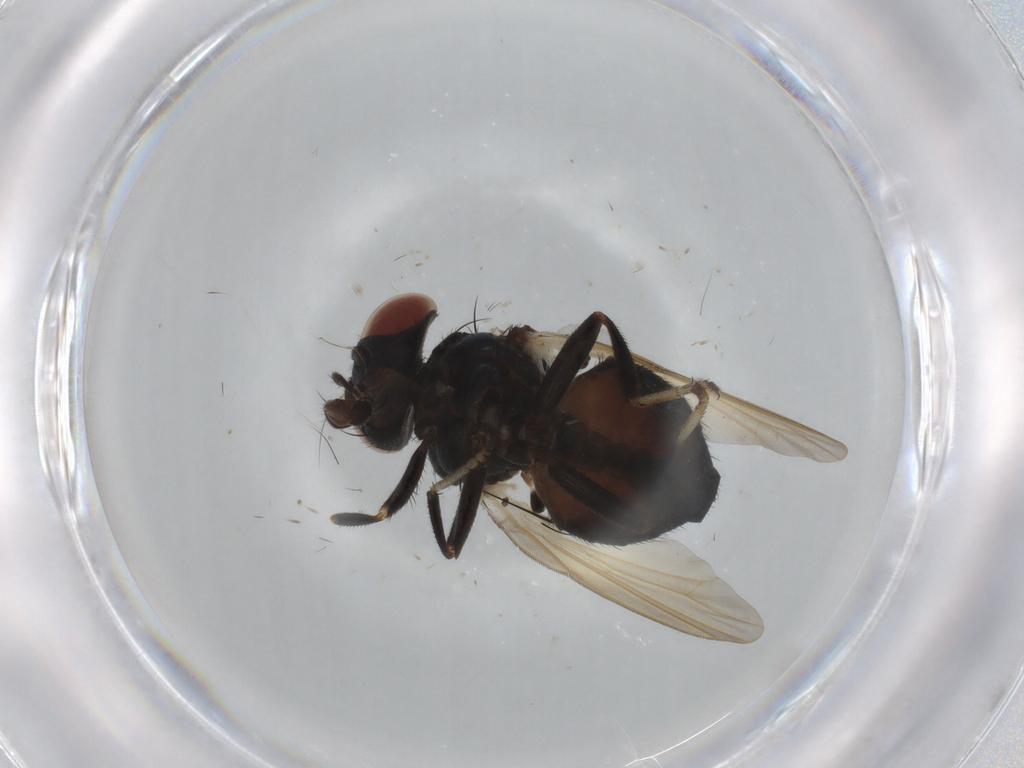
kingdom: Animalia
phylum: Arthropoda
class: Insecta
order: Diptera
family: Lonchaeidae
